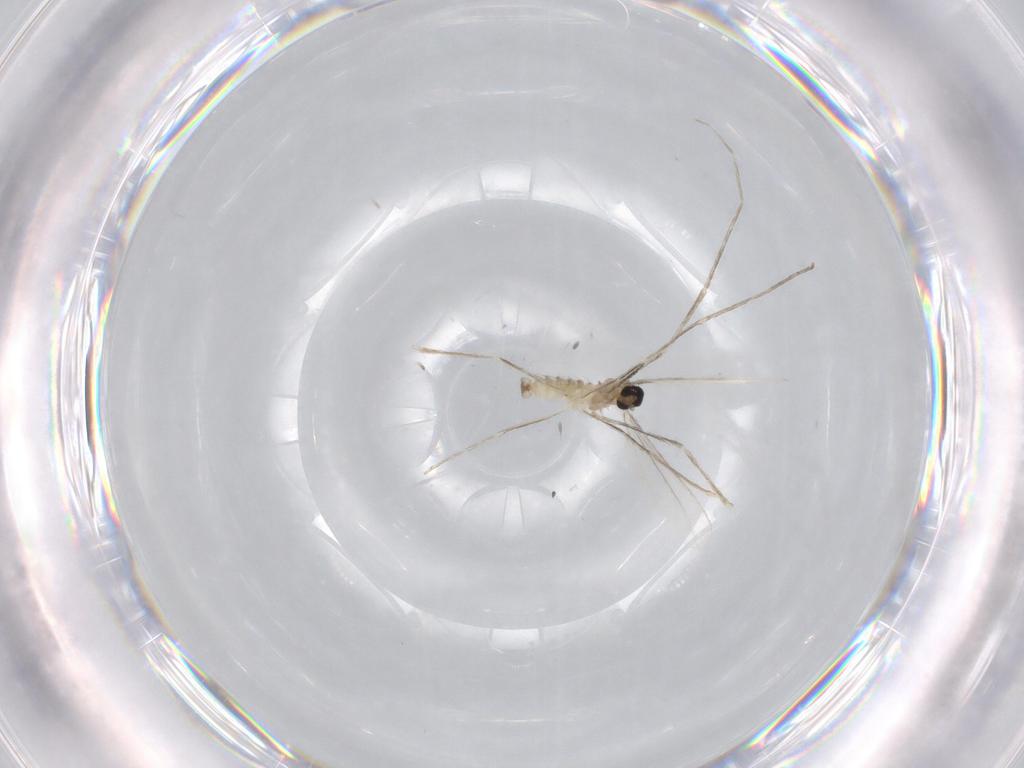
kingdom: Animalia
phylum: Arthropoda
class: Insecta
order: Diptera
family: Cecidomyiidae
